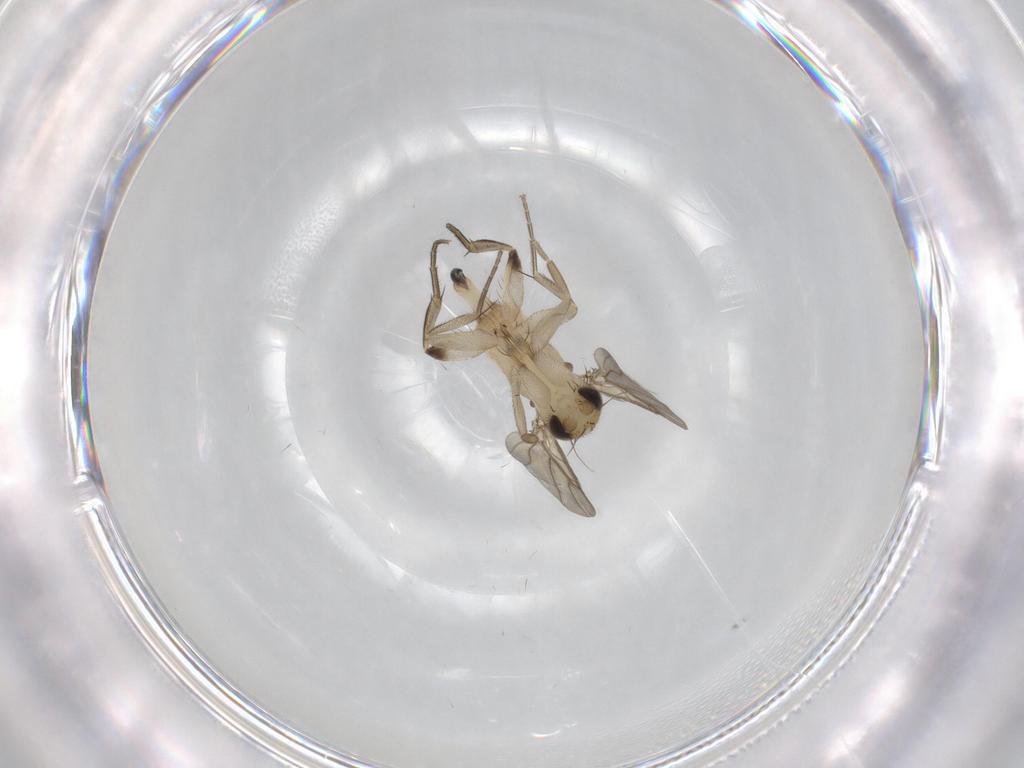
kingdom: Animalia
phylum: Arthropoda
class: Insecta
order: Diptera
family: Phoridae
